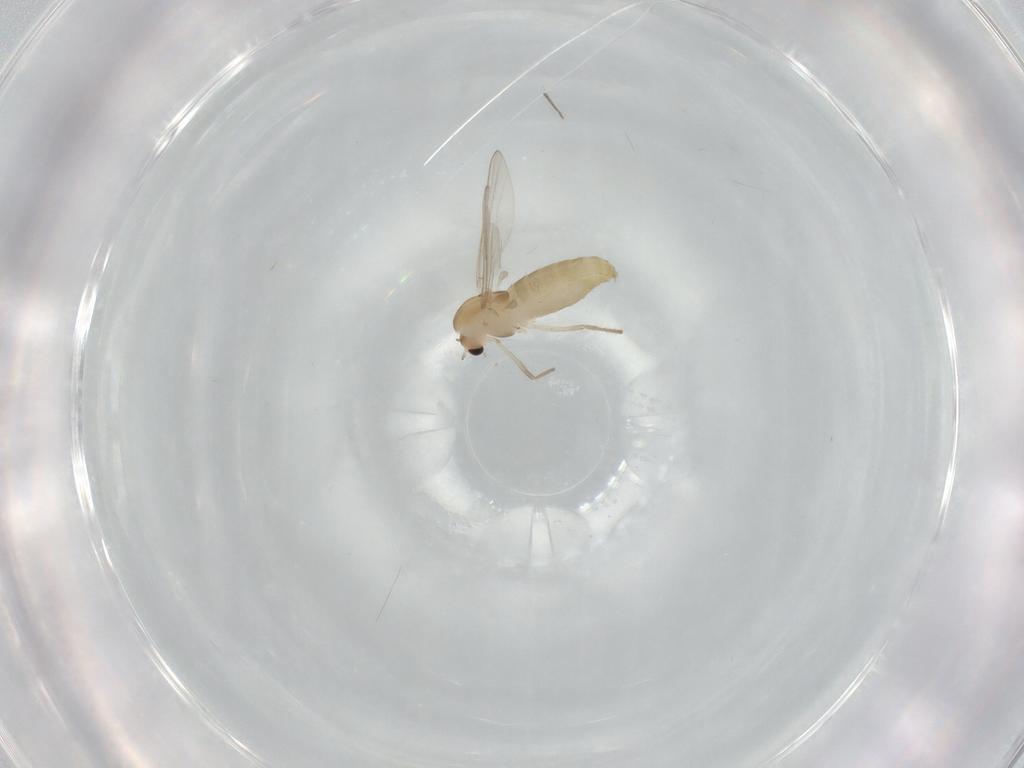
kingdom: Animalia
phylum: Arthropoda
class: Insecta
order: Diptera
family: Chironomidae
